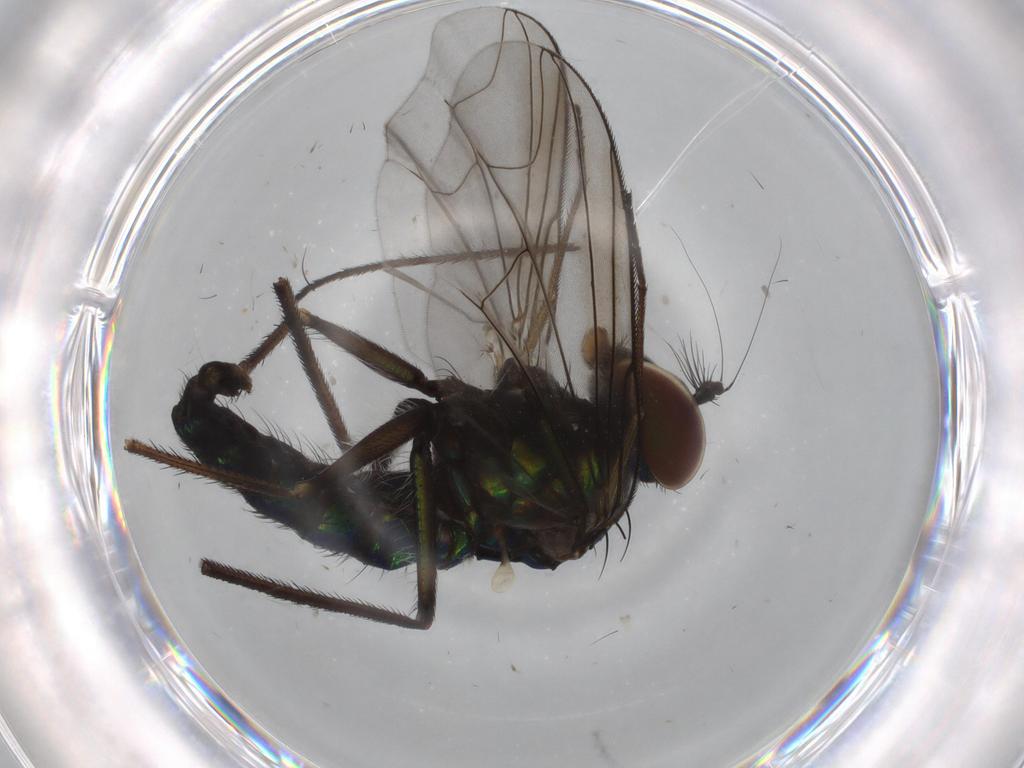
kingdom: Animalia
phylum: Arthropoda
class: Insecta
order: Diptera
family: Dolichopodidae
